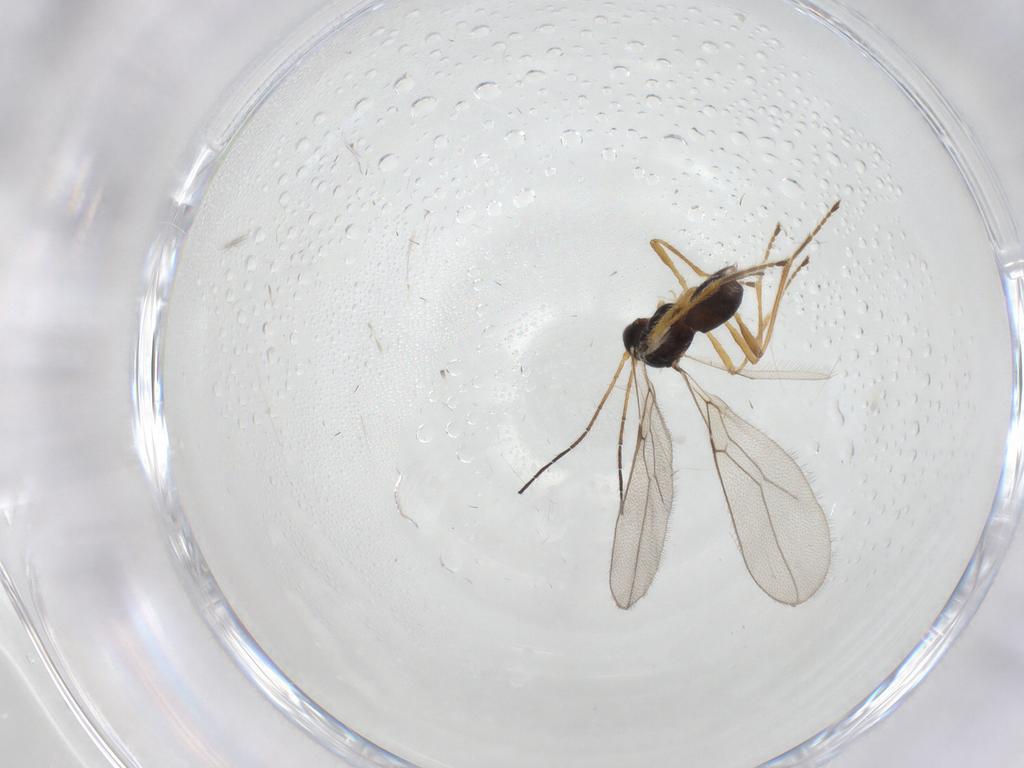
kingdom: Animalia
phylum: Arthropoda
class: Insecta
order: Hymenoptera
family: Braconidae
